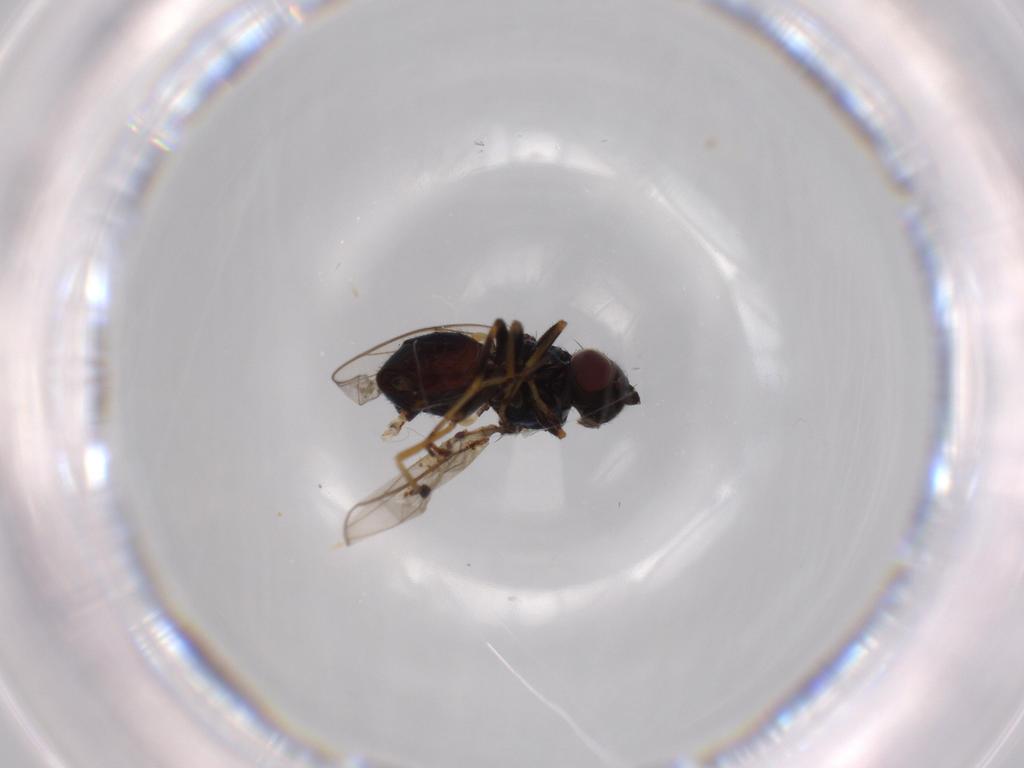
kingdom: Animalia
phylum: Arthropoda
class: Insecta
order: Diptera
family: Phoridae
